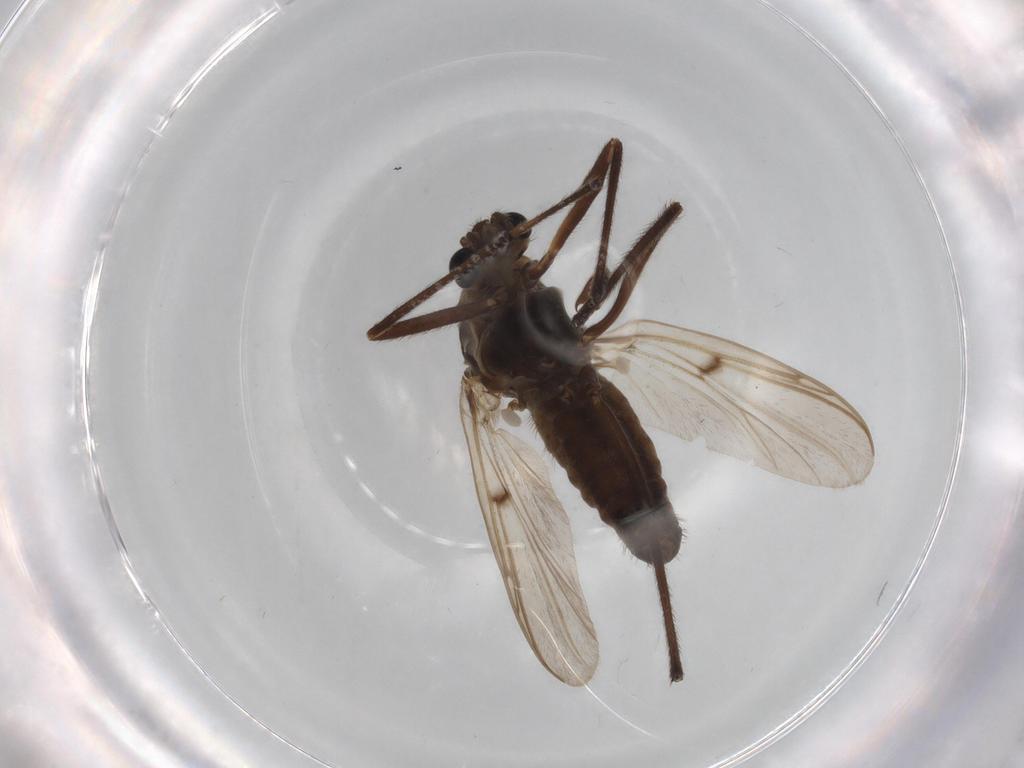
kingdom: Animalia
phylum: Arthropoda
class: Insecta
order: Diptera
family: Chironomidae
